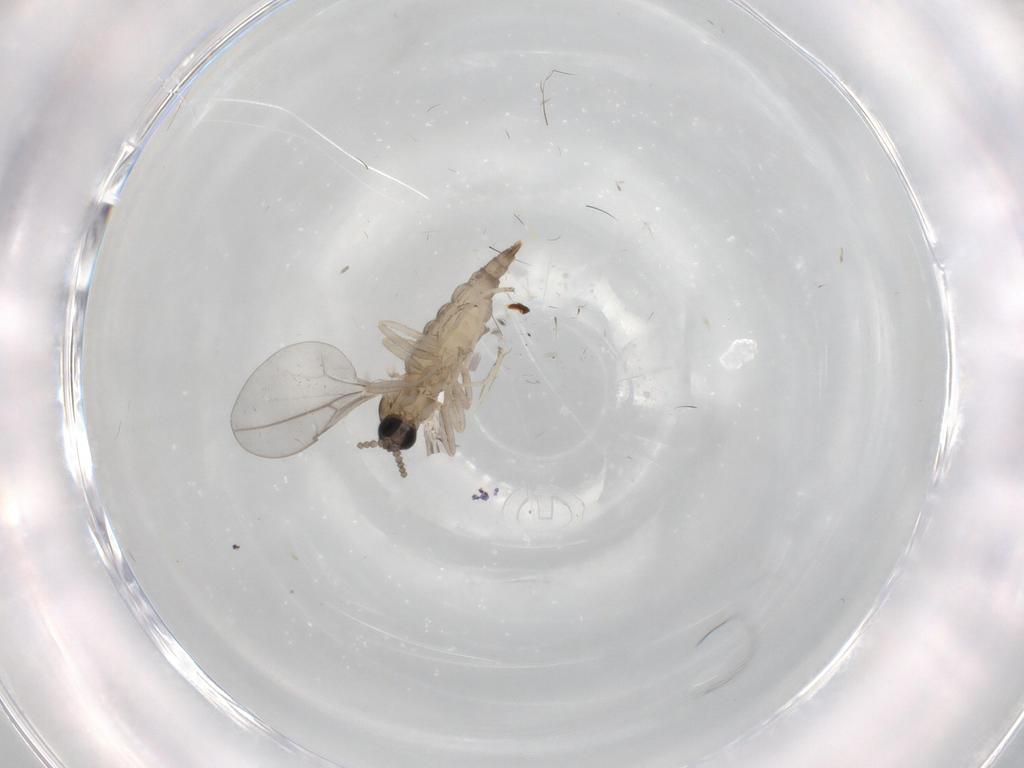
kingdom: Animalia
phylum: Arthropoda
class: Insecta
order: Diptera
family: Cecidomyiidae
